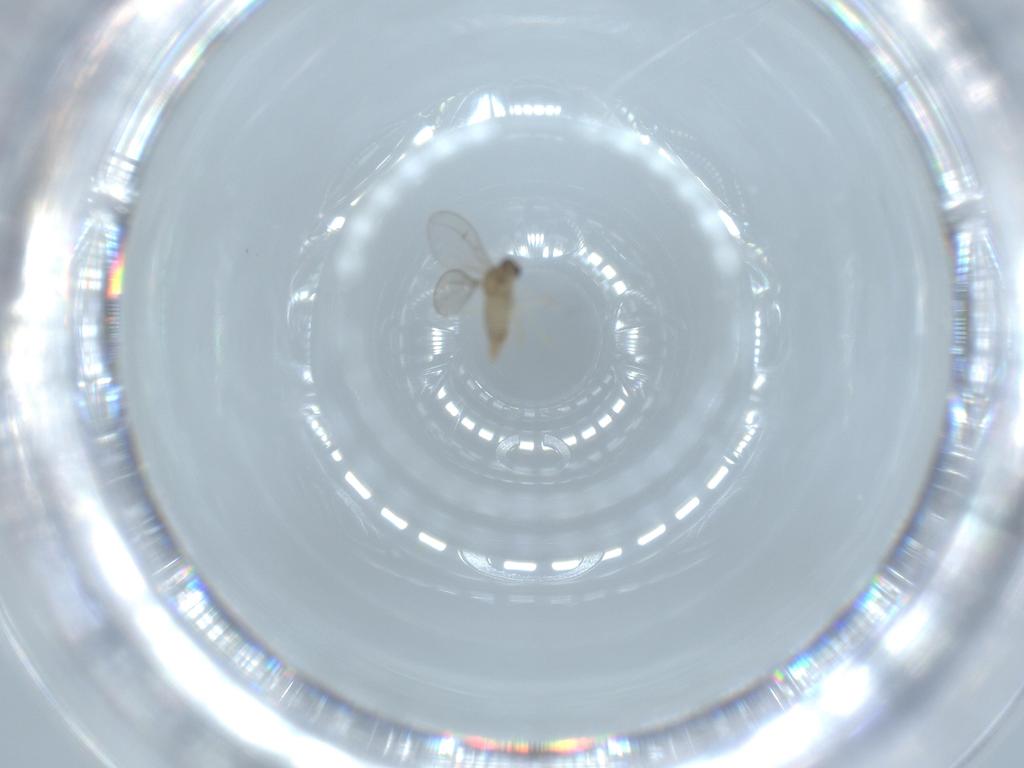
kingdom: Animalia
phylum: Arthropoda
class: Insecta
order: Diptera
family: Cecidomyiidae
